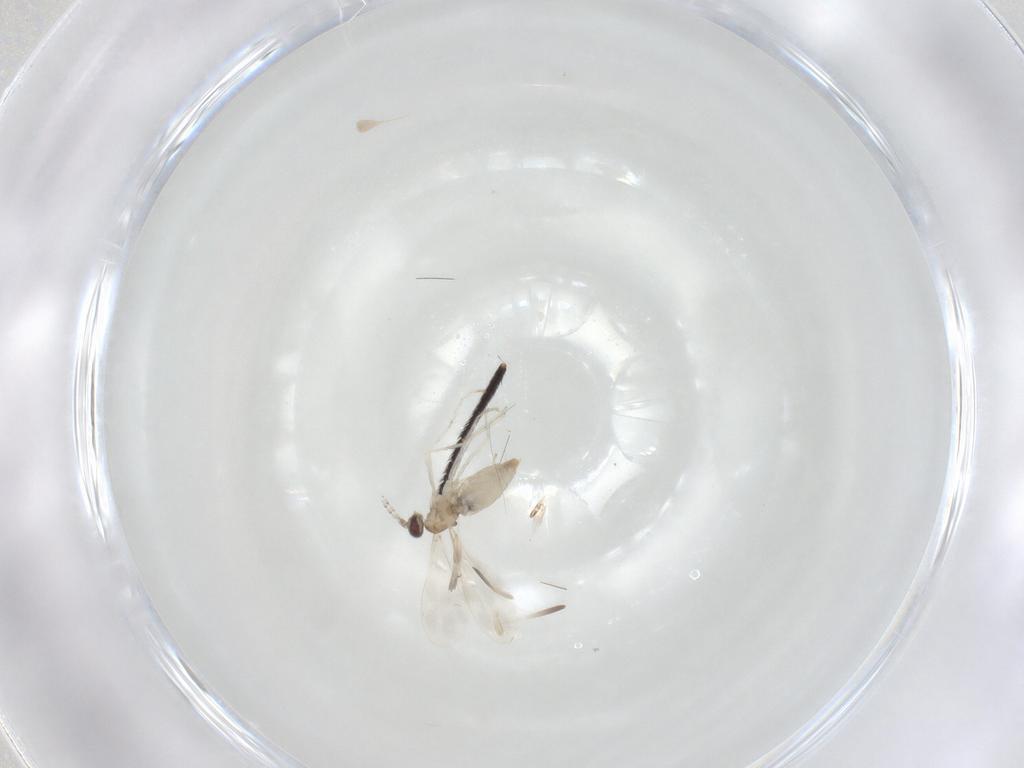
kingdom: Animalia
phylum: Arthropoda
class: Insecta
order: Diptera
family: Cecidomyiidae
